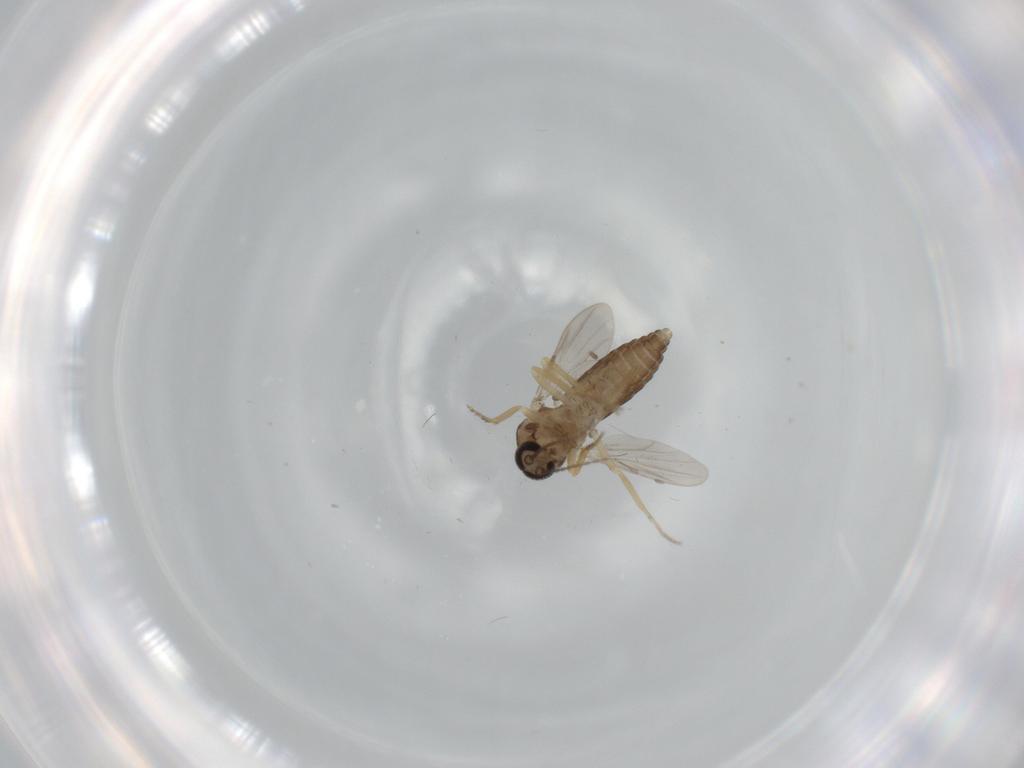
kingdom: Animalia
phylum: Arthropoda
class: Insecta
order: Diptera
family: Ceratopogonidae
